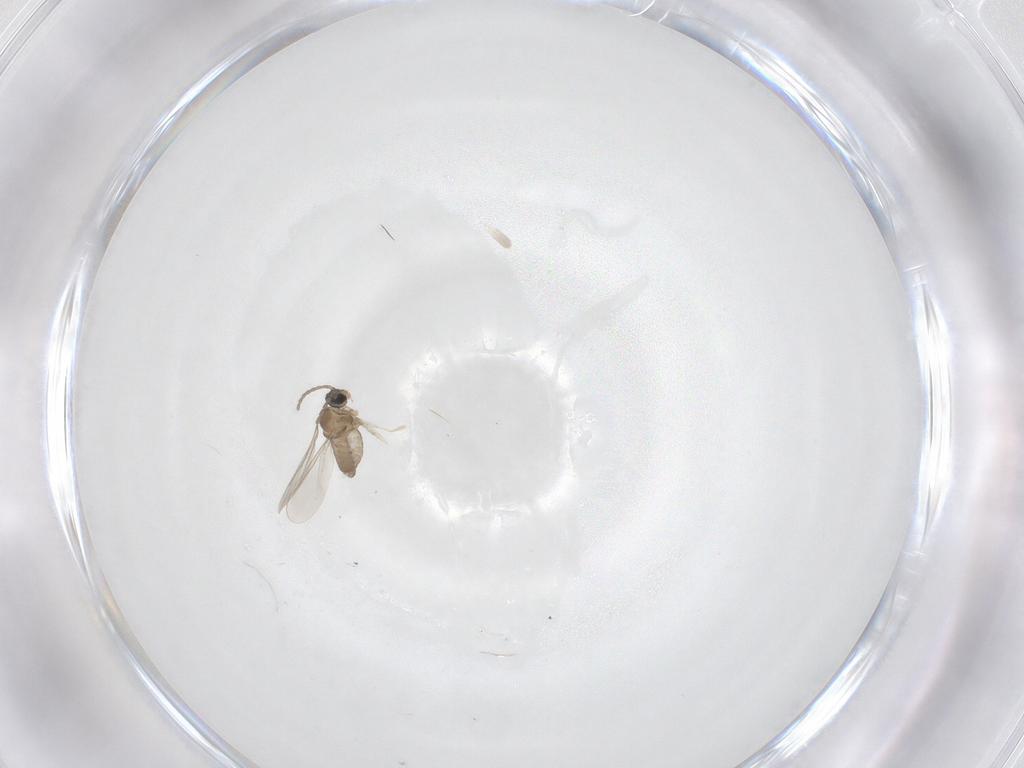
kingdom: Animalia
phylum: Arthropoda
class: Insecta
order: Diptera
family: Cecidomyiidae
